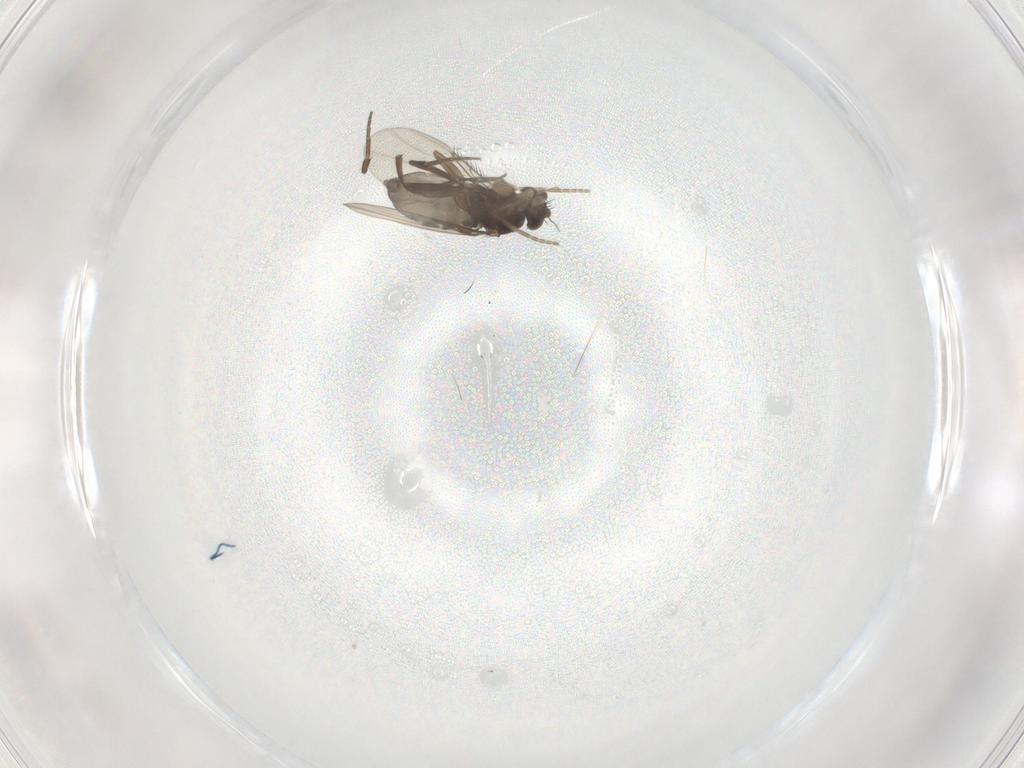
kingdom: Animalia
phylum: Arthropoda
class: Insecta
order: Diptera
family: Phoridae
